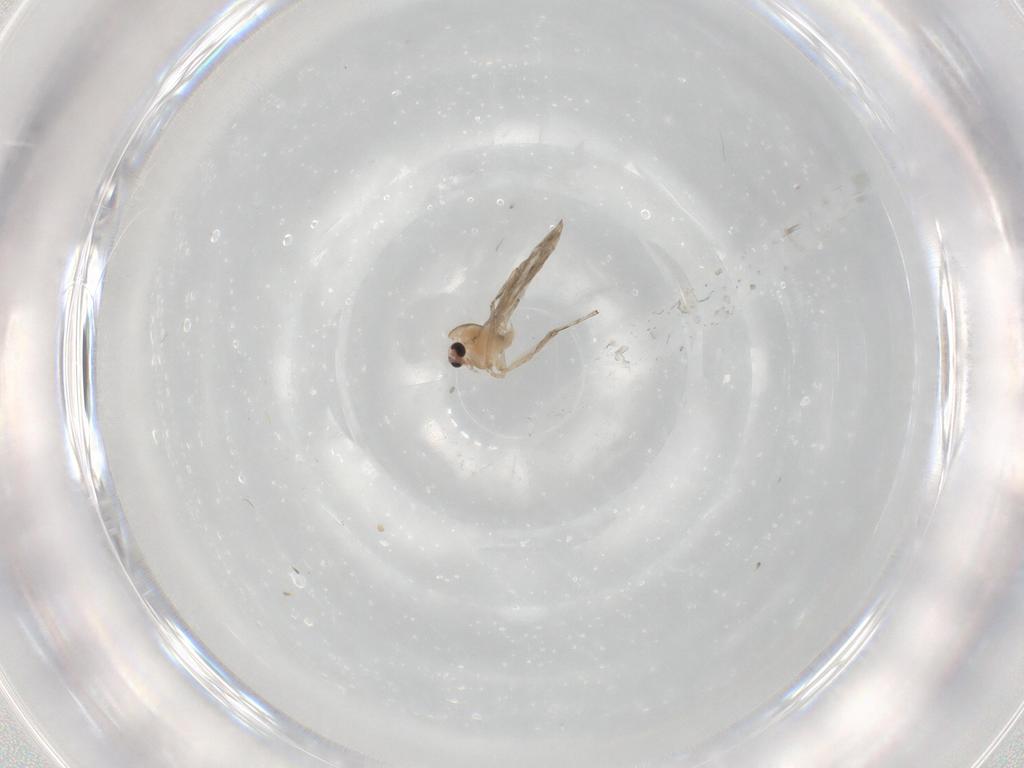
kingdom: Animalia
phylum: Arthropoda
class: Insecta
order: Diptera
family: Chironomidae
